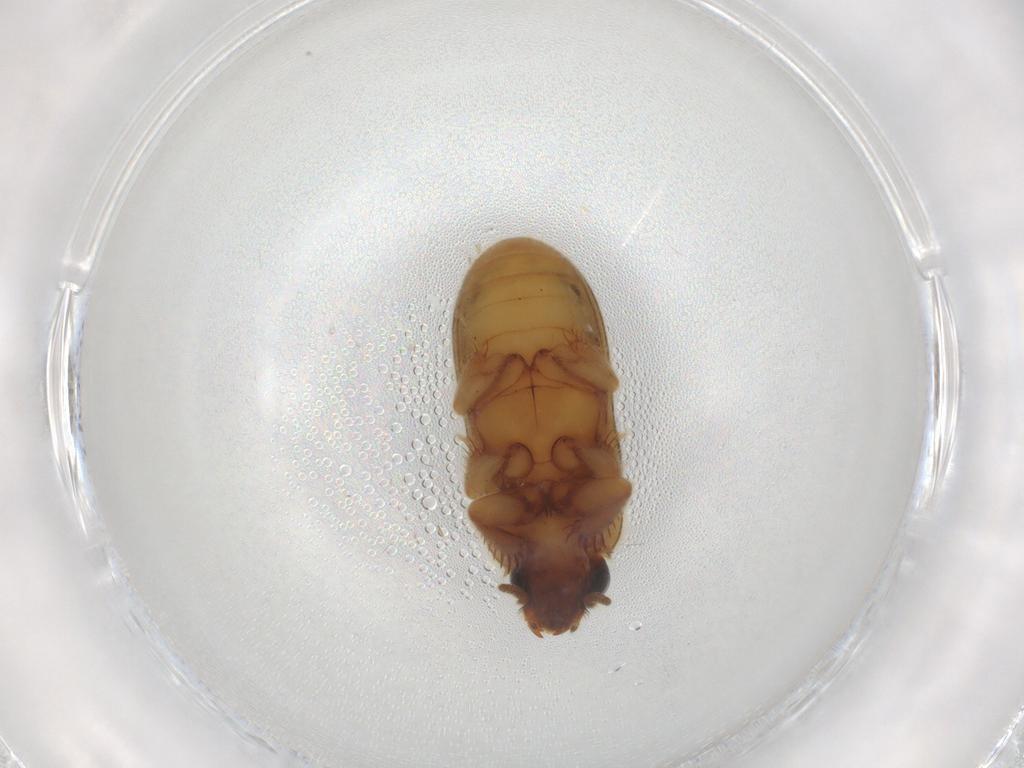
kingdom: Animalia
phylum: Arthropoda
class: Insecta
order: Coleoptera
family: Heteroceridae
